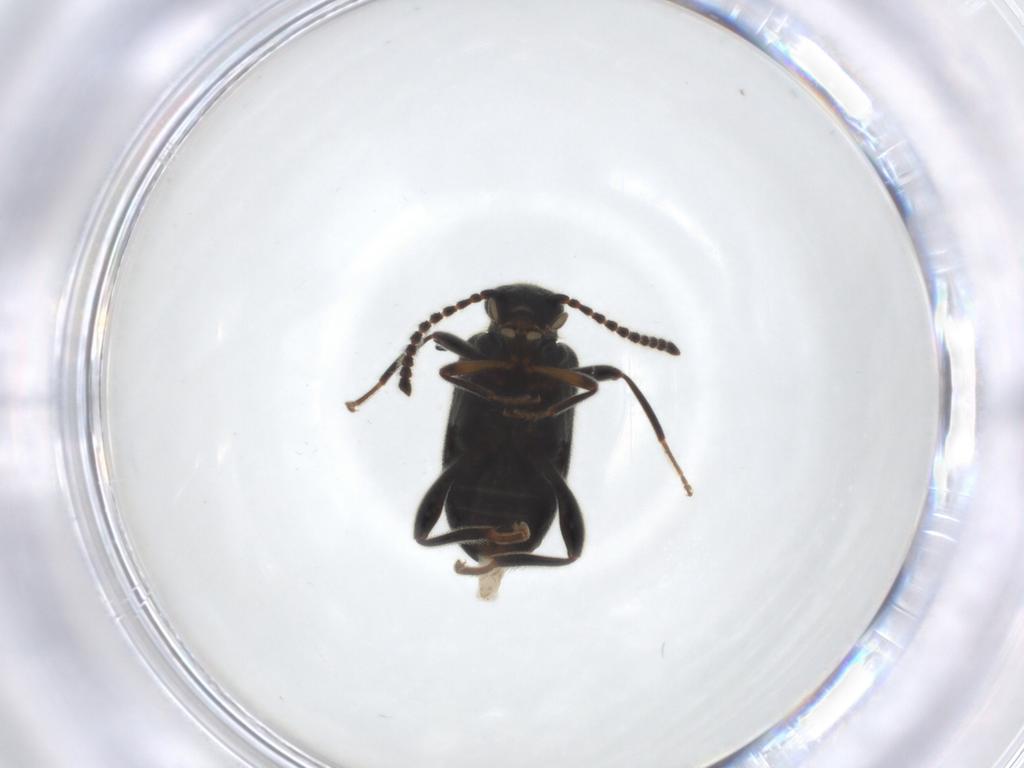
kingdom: Animalia
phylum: Arthropoda
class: Insecta
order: Coleoptera
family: Aderidae
